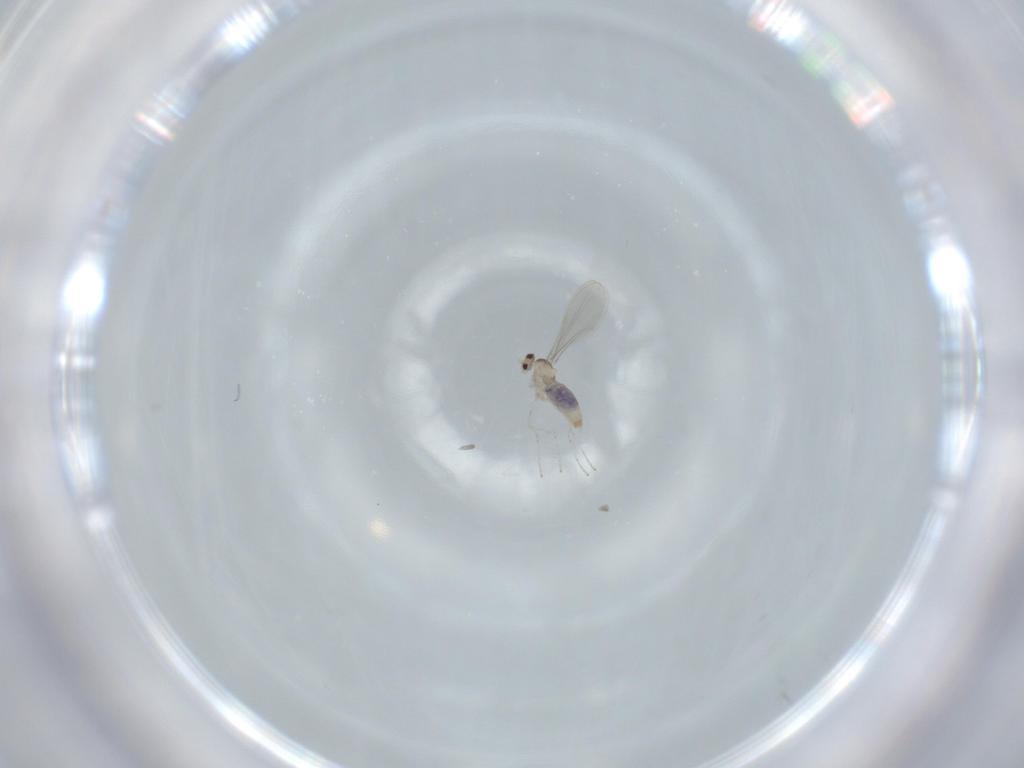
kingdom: Animalia
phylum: Arthropoda
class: Insecta
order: Diptera
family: Cecidomyiidae
